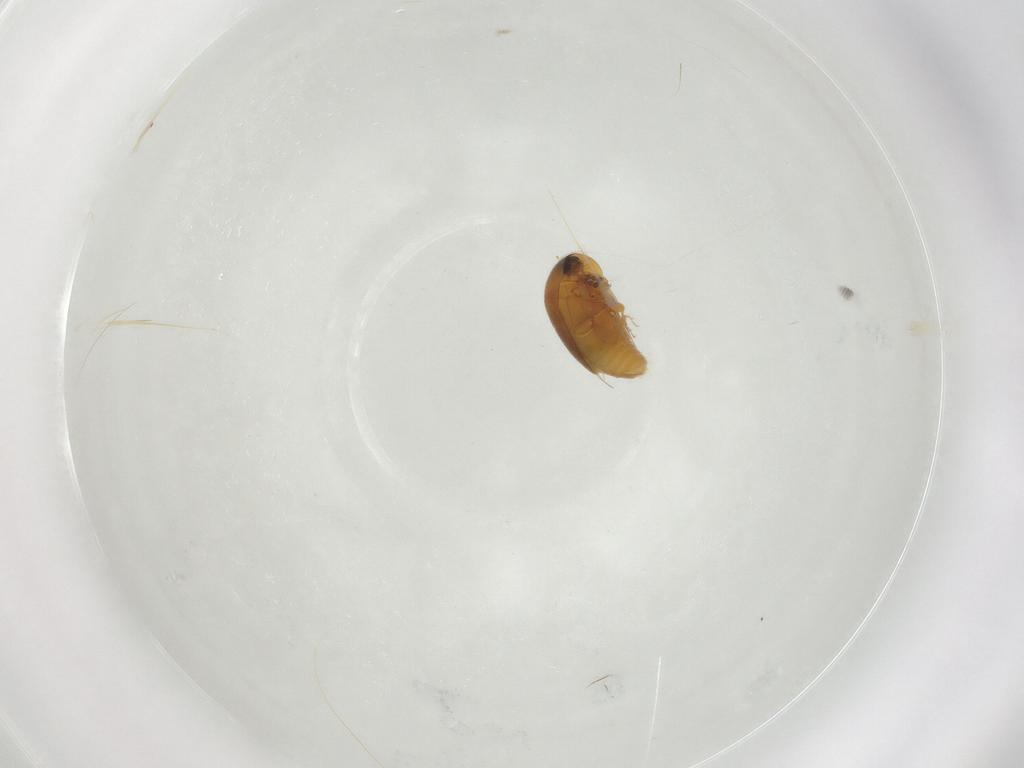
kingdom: Animalia
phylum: Arthropoda
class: Insecta
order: Coleoptera
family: Corylophidae
